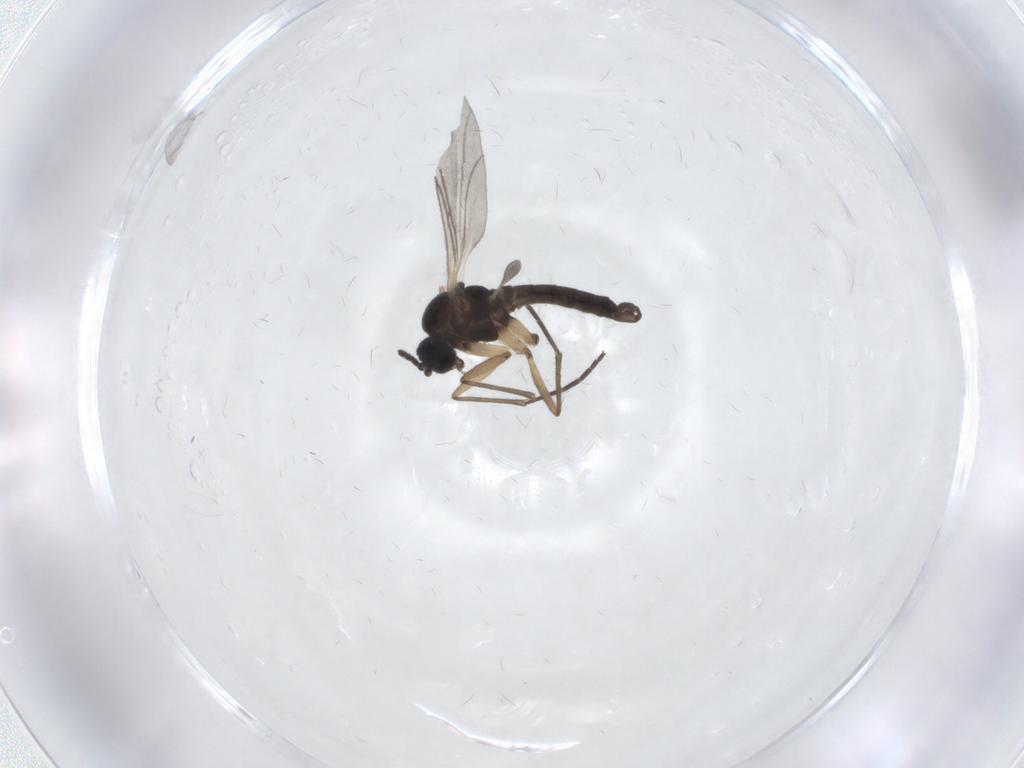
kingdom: Animalia
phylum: Arthropoda
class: Insecta
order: Diptera
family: Sciaridae
